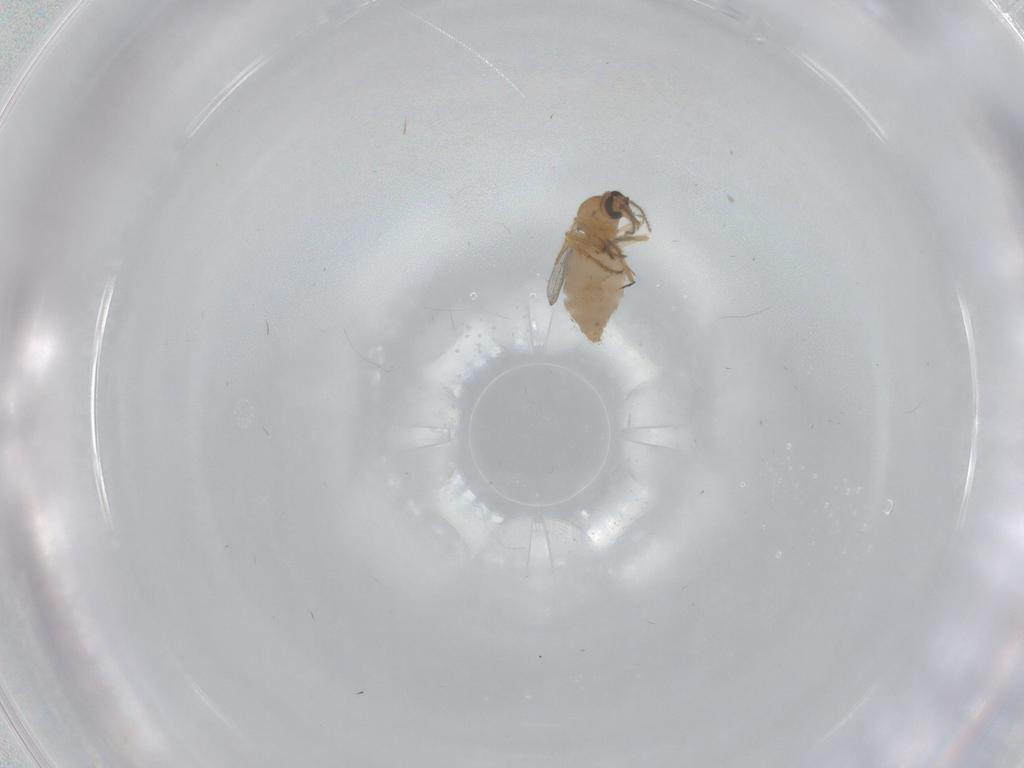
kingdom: Animalia
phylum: Arthropoda
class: Insecta
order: Diptera
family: Ceratopogonidae
